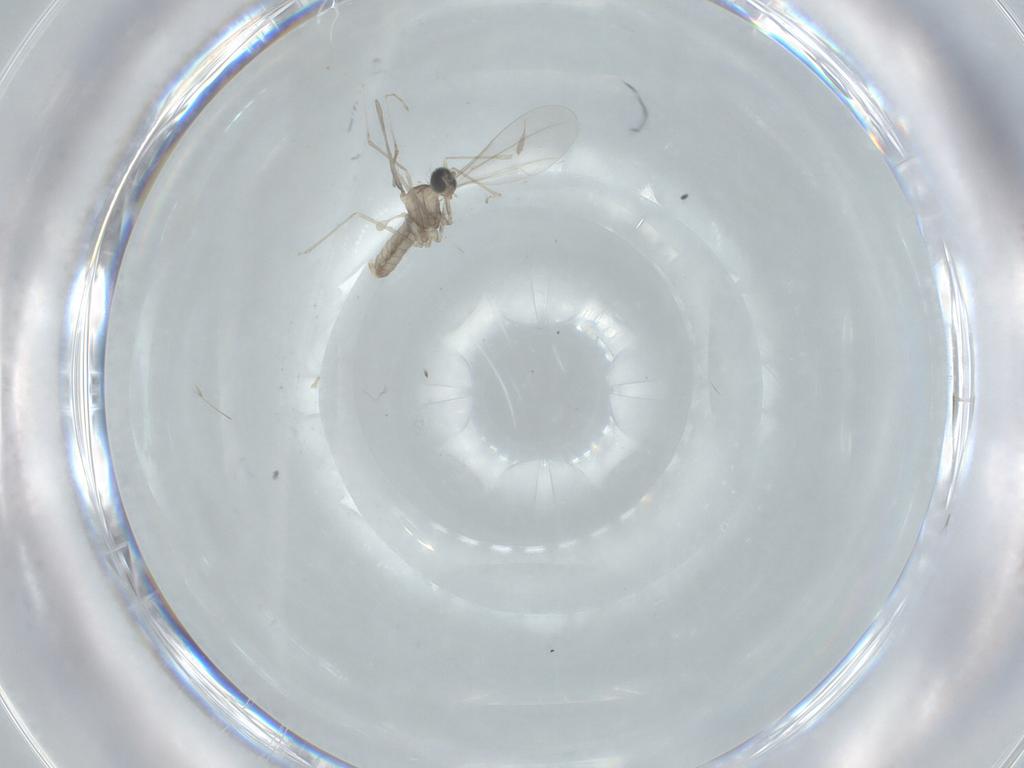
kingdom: Animalia
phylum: Arthropoda
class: Insecta
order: Diptera
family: Cecidomyiidae
